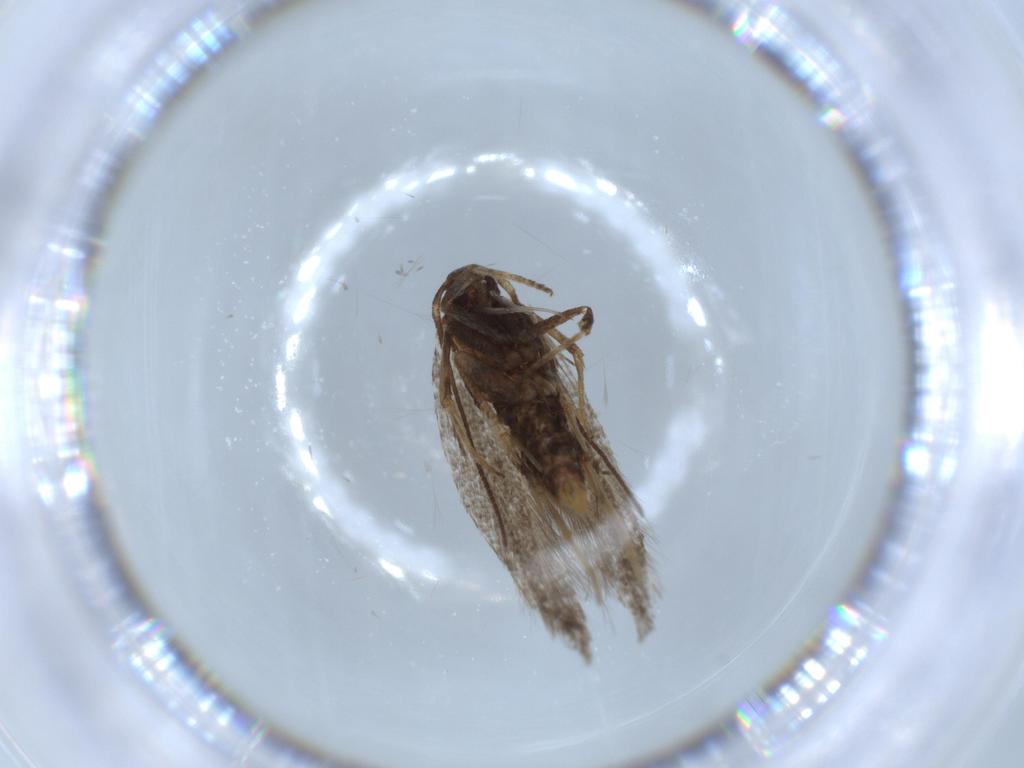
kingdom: Animalia
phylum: Arthropoda
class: Insecta
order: Lepidoptera
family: Cosmopterigidae
